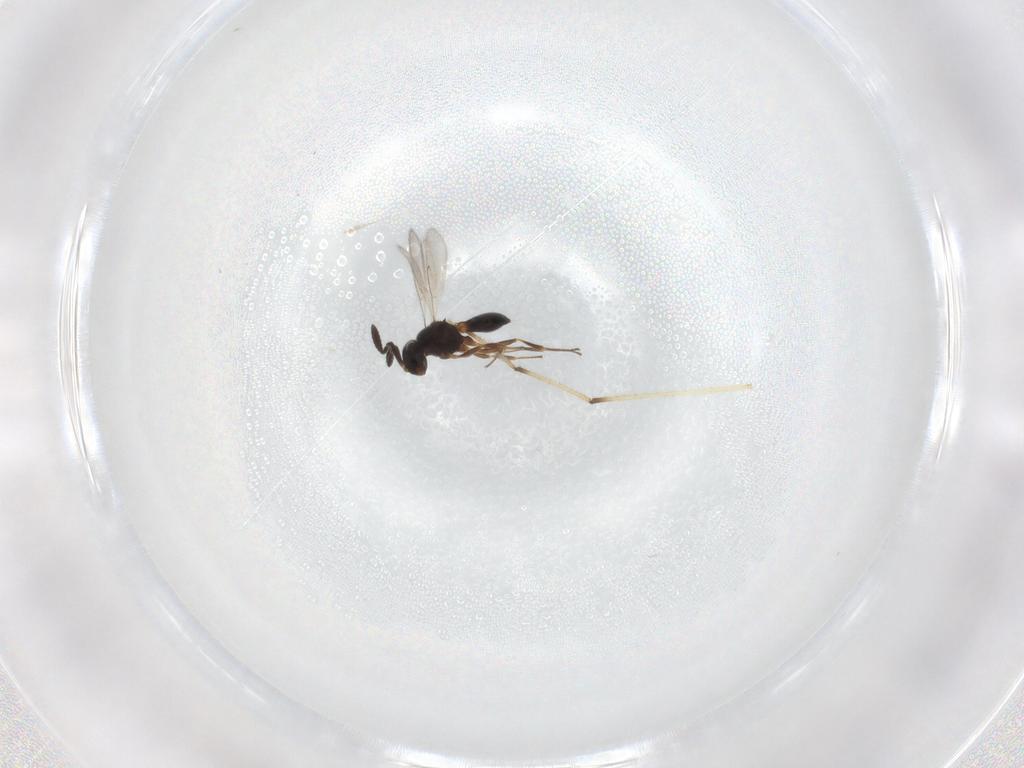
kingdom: Animalia
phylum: Arthropoda
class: Insecta
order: Hymenoptera
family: Scelionidae
